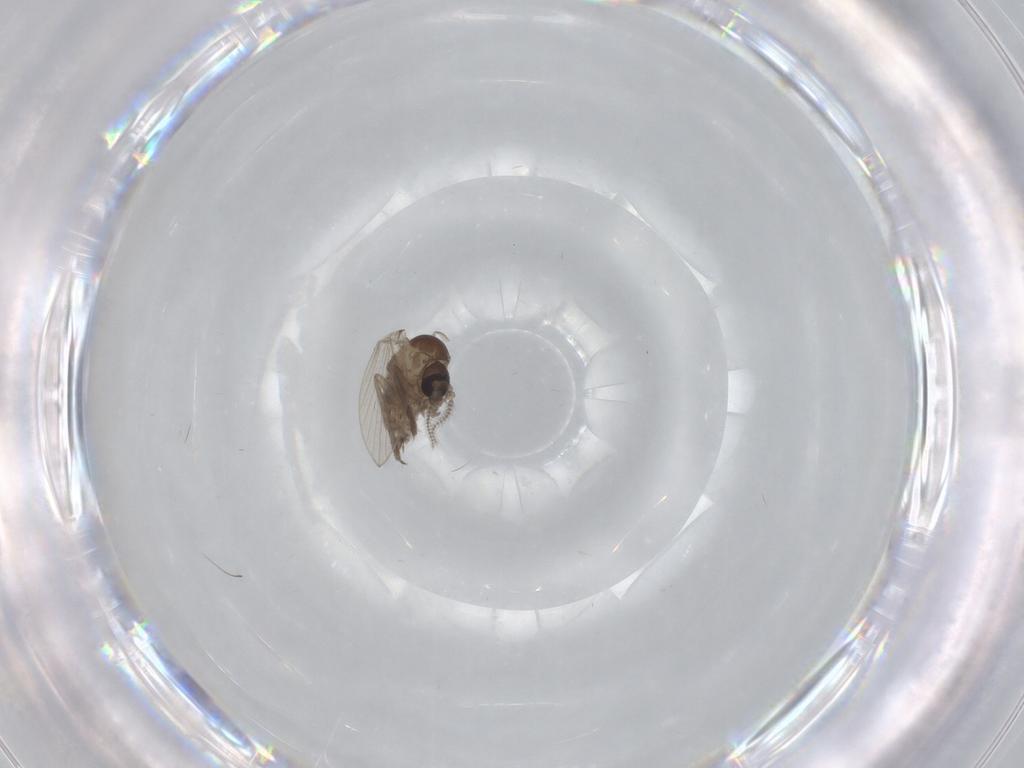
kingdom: Animalia
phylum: Arthropoda
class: Insecta
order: Diptera
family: Psychodidae
